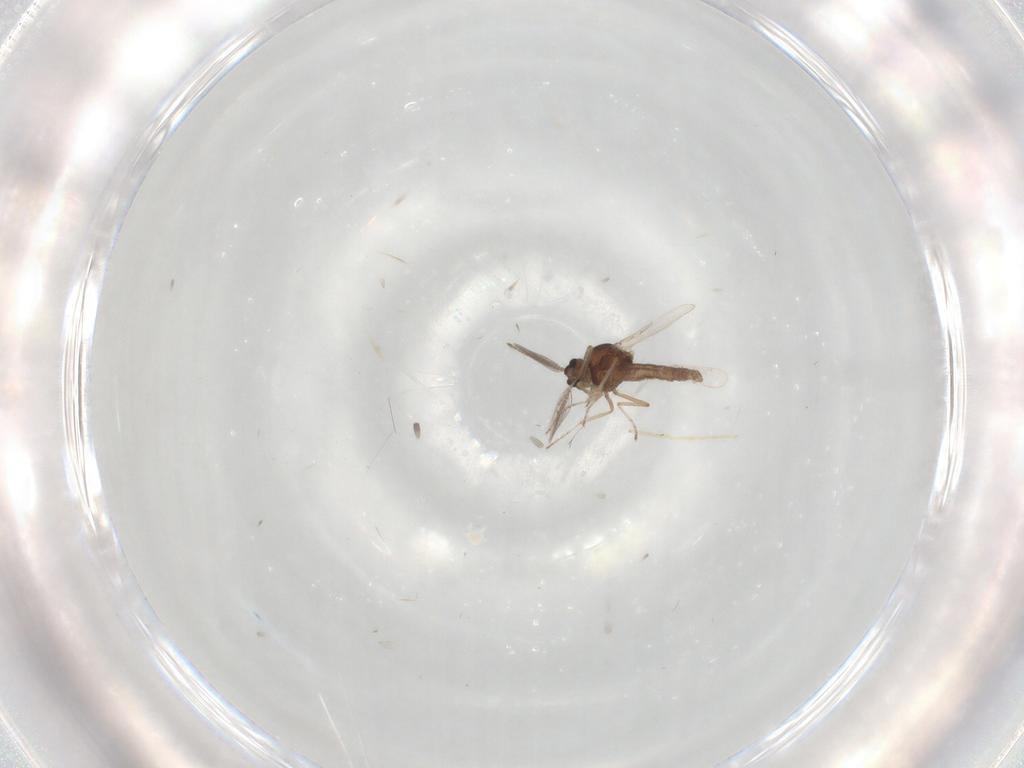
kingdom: Animalia
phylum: Arthropoda
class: Insecta
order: Diptera
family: Ceratopogonidae
